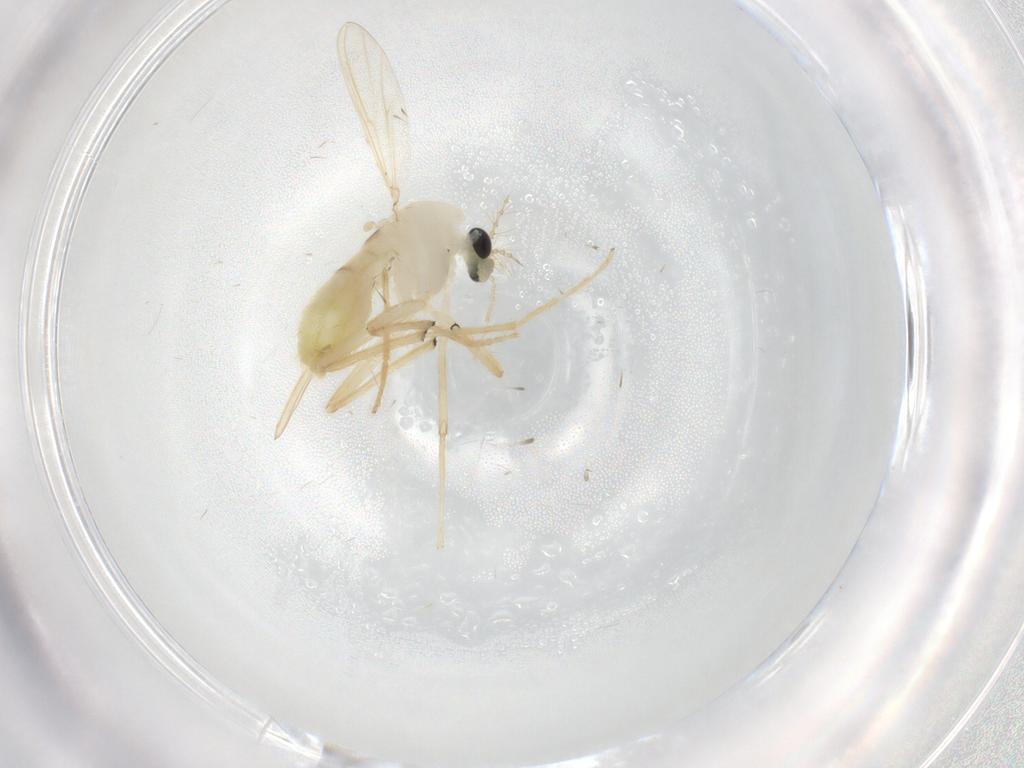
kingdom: Animalia
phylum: Arthropoda
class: Insecta
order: Diptera
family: Chironomidae
